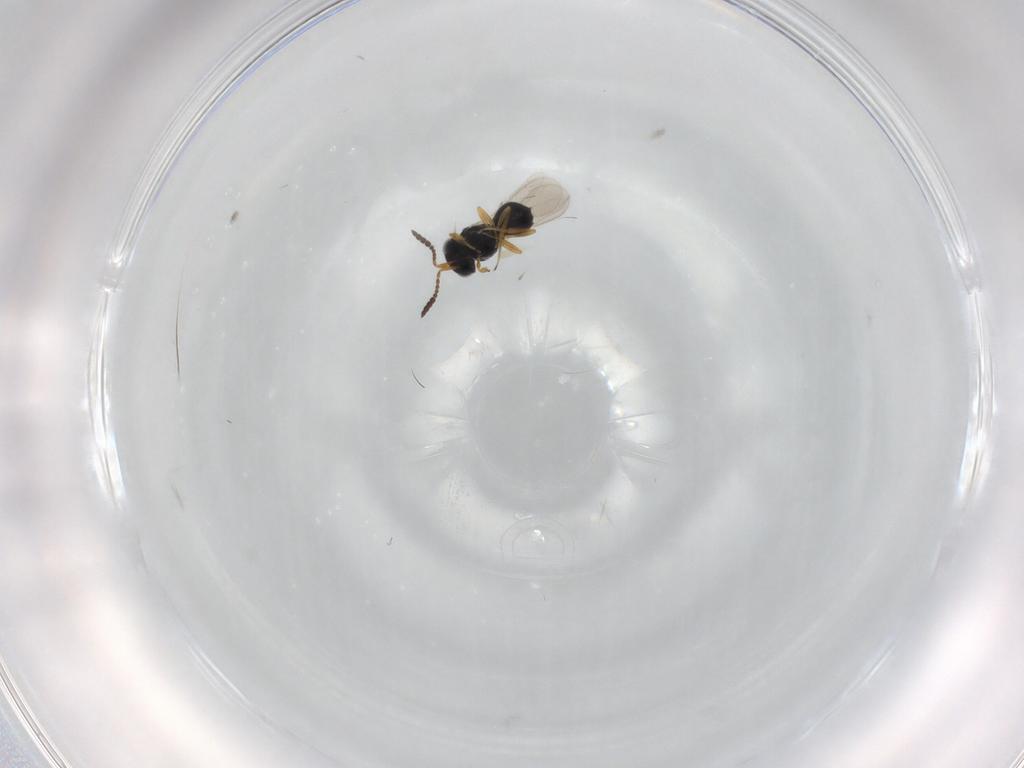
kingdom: Animalia
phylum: Arthropoda
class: Insecta
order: Hymenoptera
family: Scelionidae
